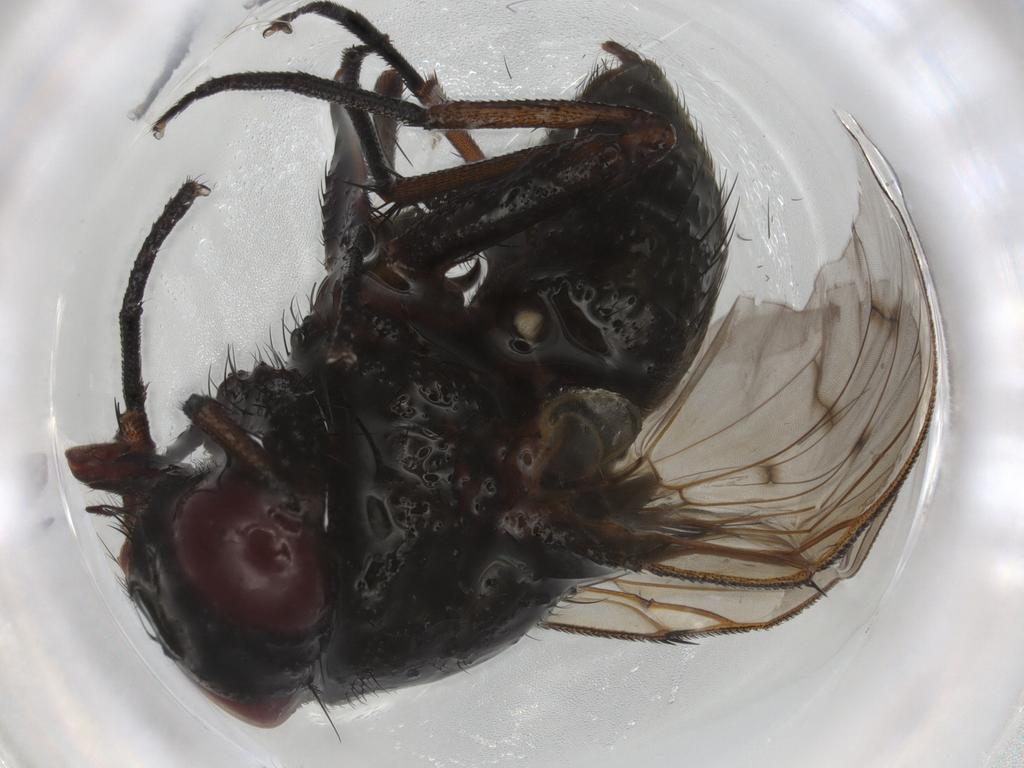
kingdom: Animalia
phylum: Arthropoda
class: Insecta
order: Diptera
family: Muscidae
